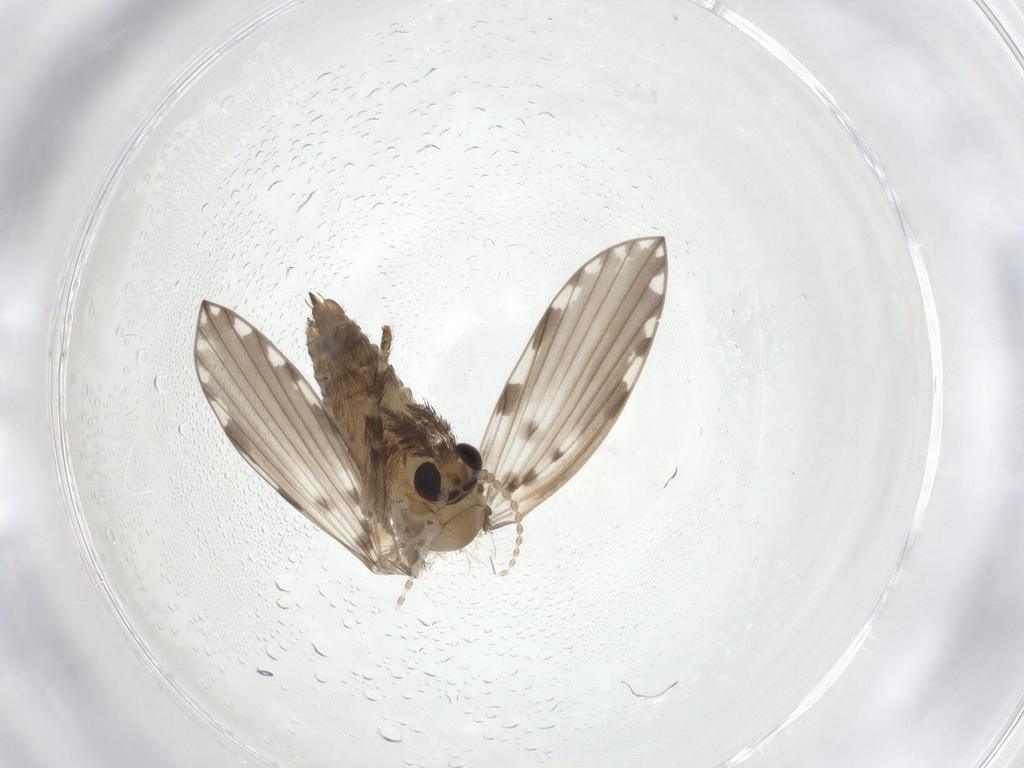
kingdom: Animalia
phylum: Arthropoda
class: Insecta
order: Diptera
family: Psychodidae
